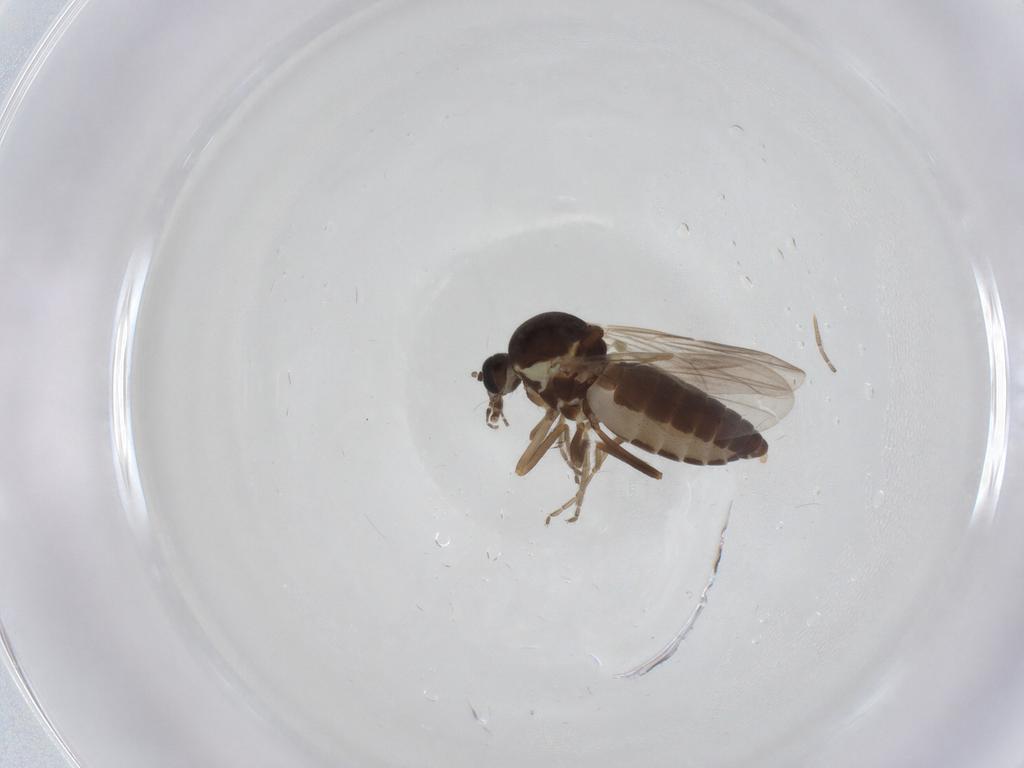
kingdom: Animalia
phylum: Arthropoda
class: Insecta
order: Diptera
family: Ceratopogonidae
